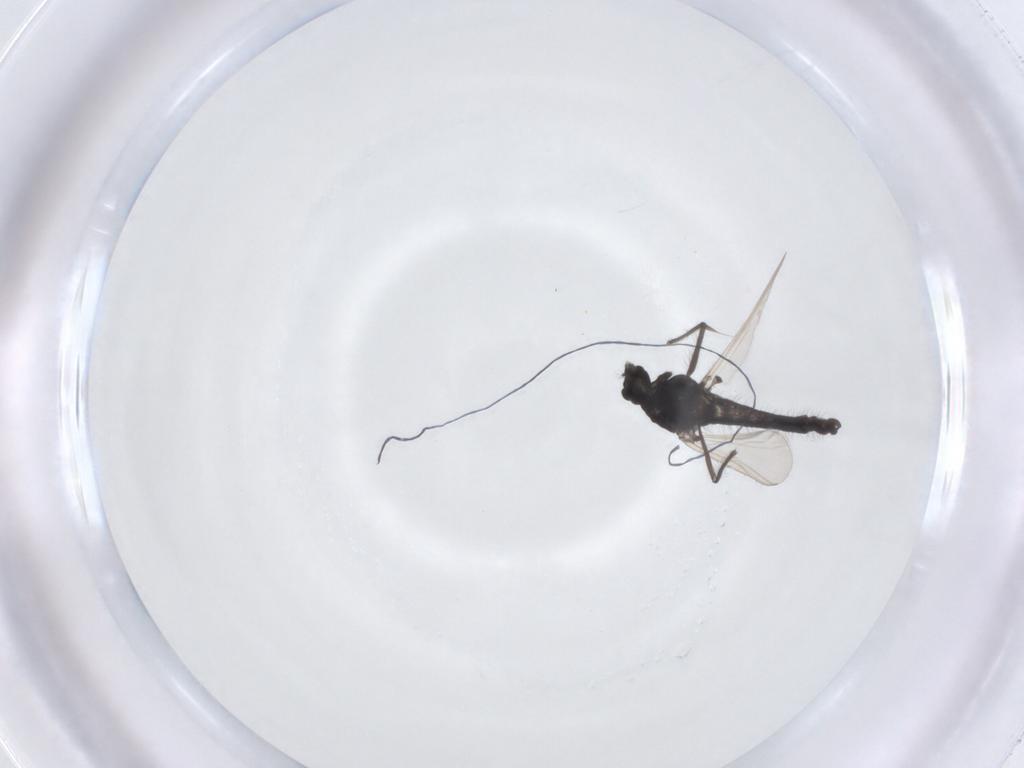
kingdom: Animalia
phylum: Arthropoda
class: Insecta
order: Diptera
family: Chironomidae
